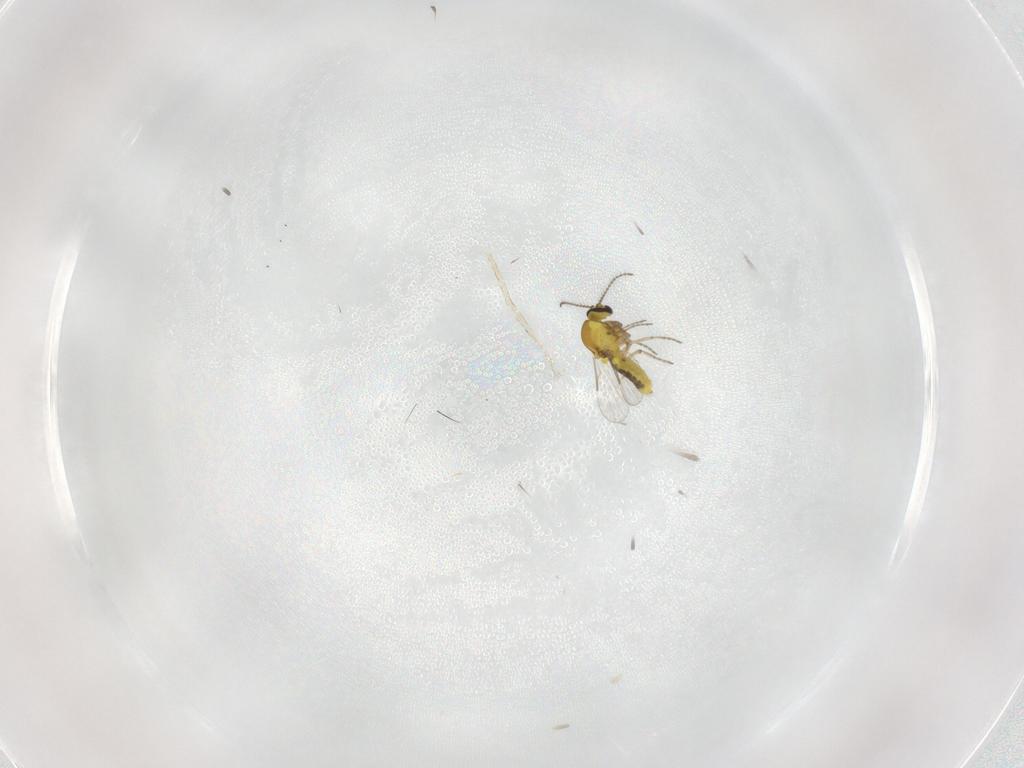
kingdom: Animalia
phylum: Arthropoda
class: Insecta
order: Diptera
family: Ceratopogonidae
